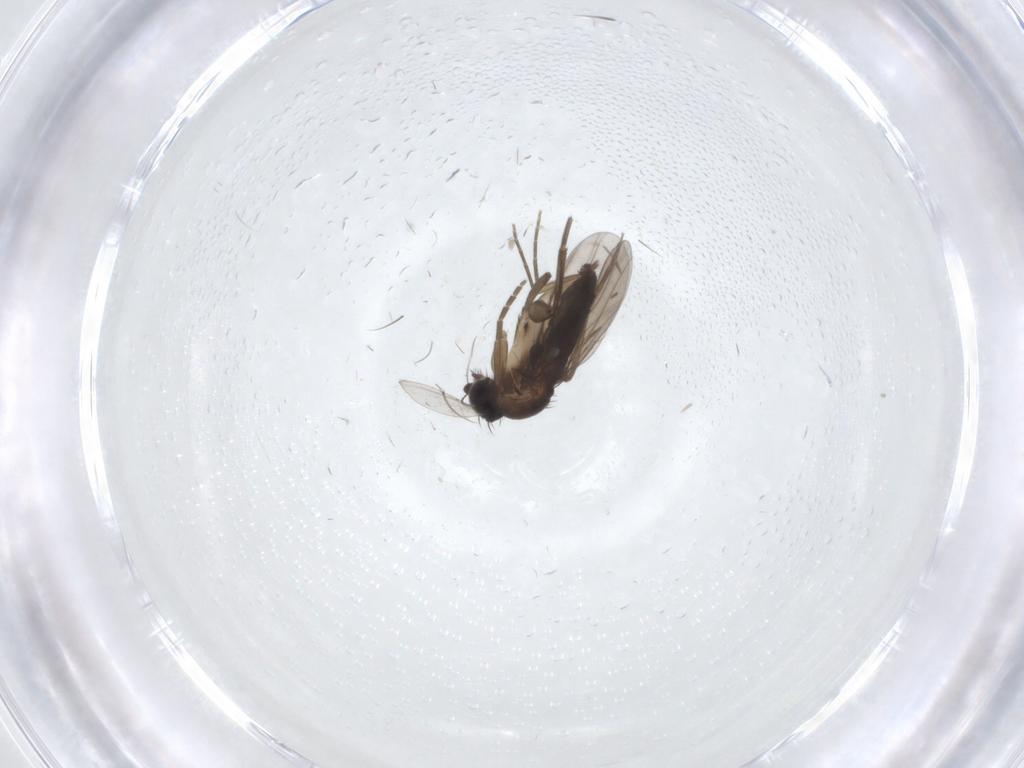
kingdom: Animalia
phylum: Arthropoda
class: Insecta
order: Diptera
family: Phoridae
